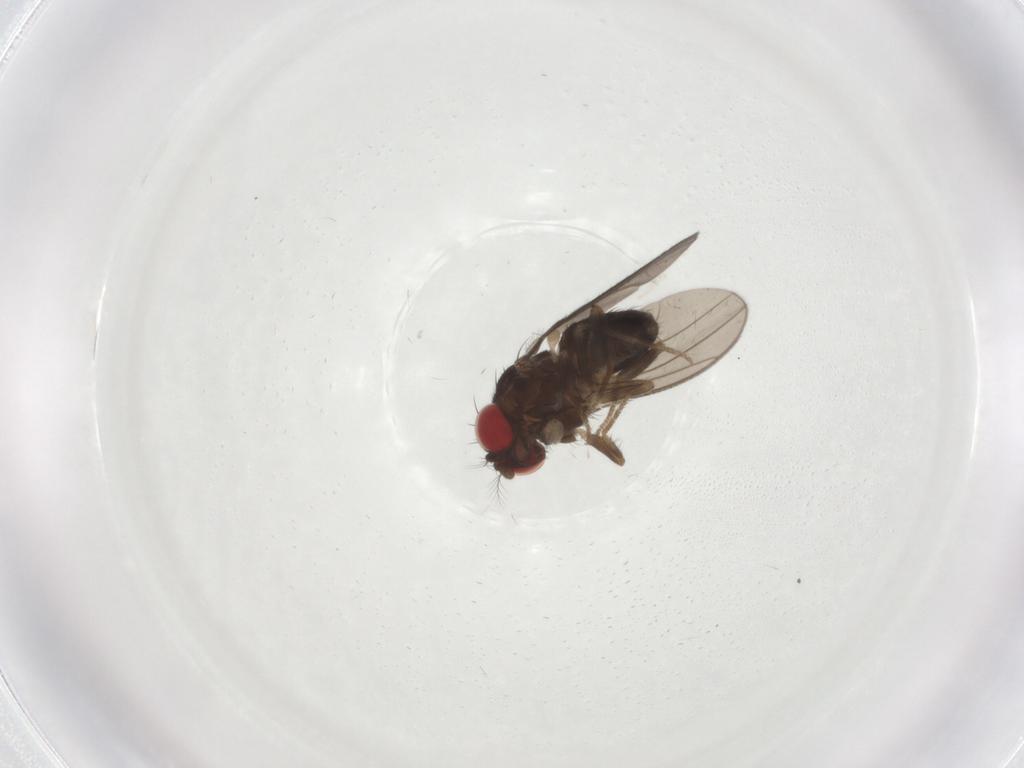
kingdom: Animalia
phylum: Arthropoda
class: Insecta
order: Diptera
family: Drosophilidae
